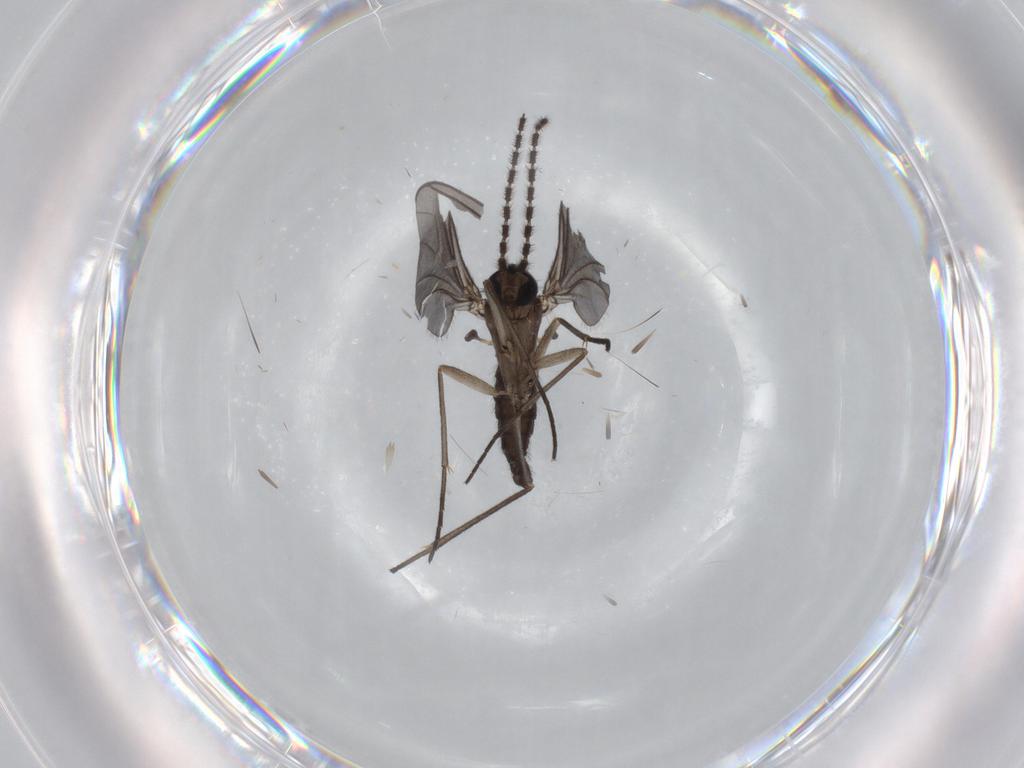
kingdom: Animalia
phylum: Arthropoda
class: Insecta
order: Diptera
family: Sciaridae
